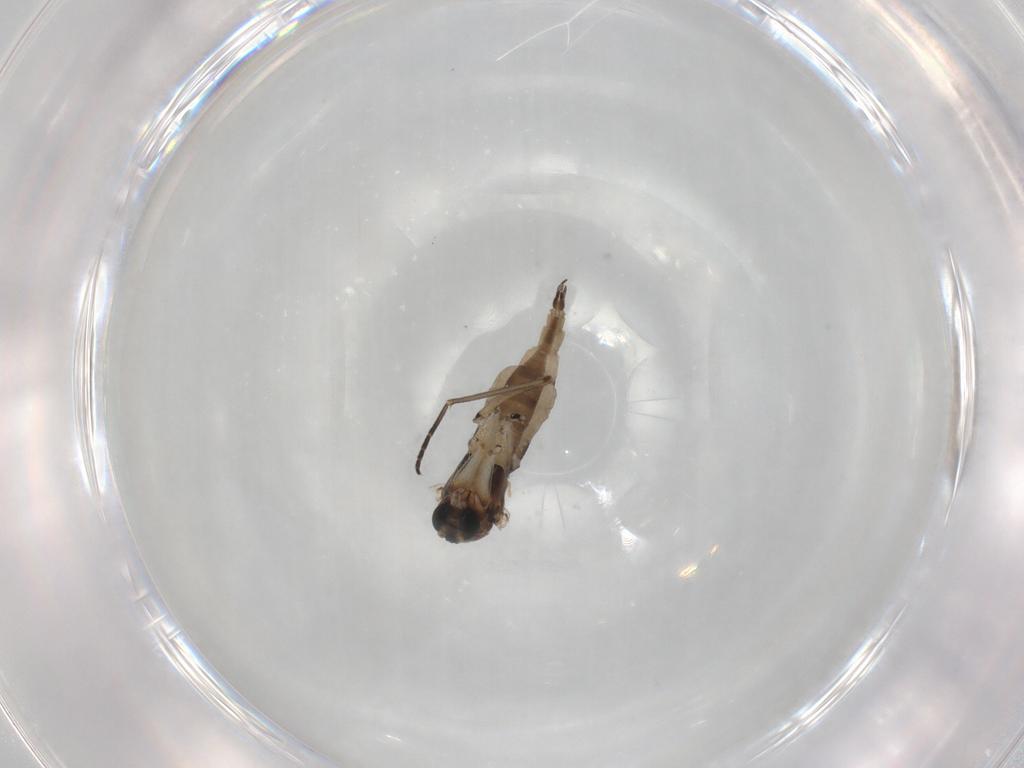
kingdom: Animalia
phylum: Arthropoda
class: Insecta
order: Diptera
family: Sciaridae
